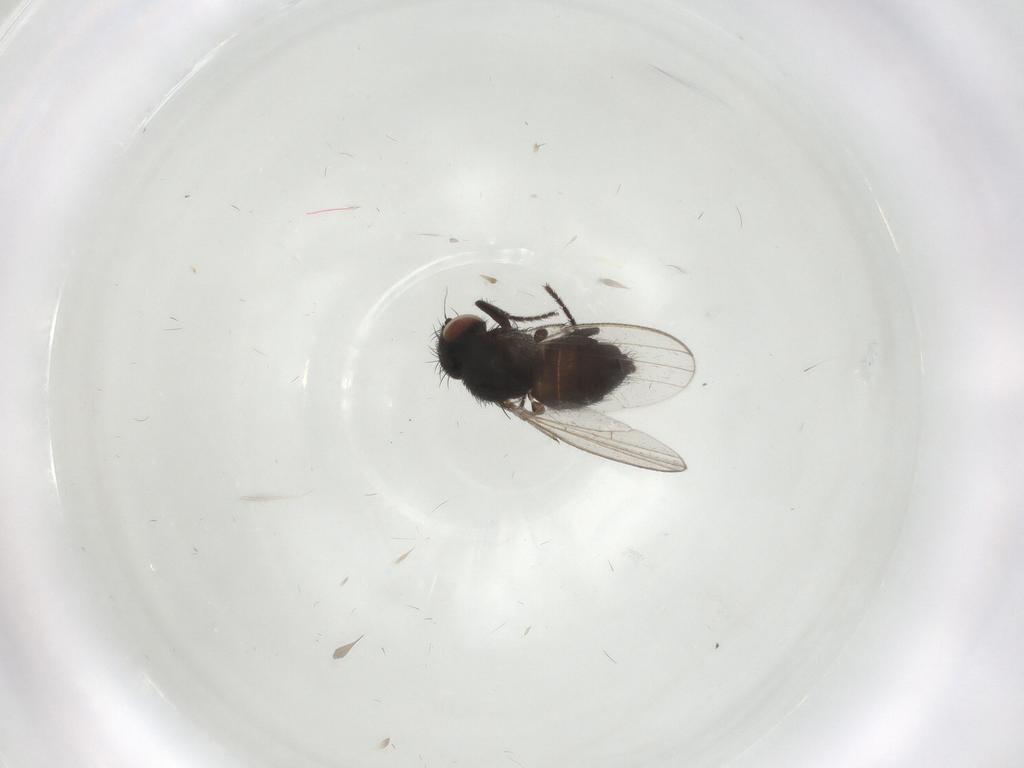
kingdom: Animalia
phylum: Arthropoda
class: Insecta
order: Diptera
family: Milichiidae
